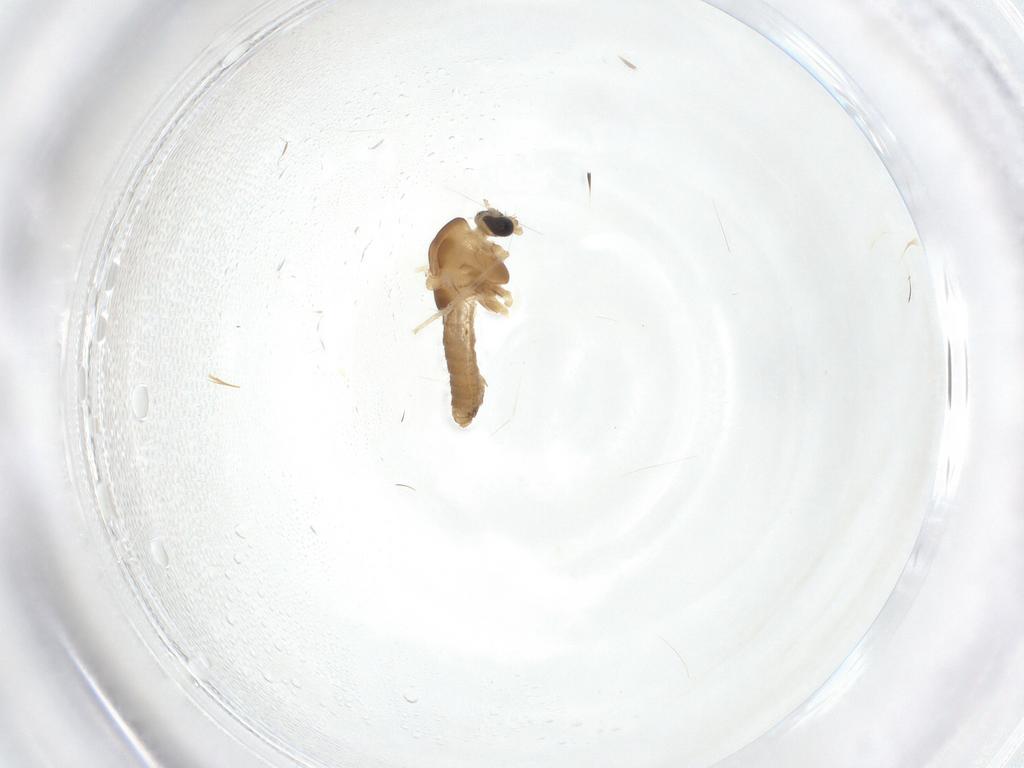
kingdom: Animalia
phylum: Arthropoda
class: Insecta
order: Diptera
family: Chironomidae
